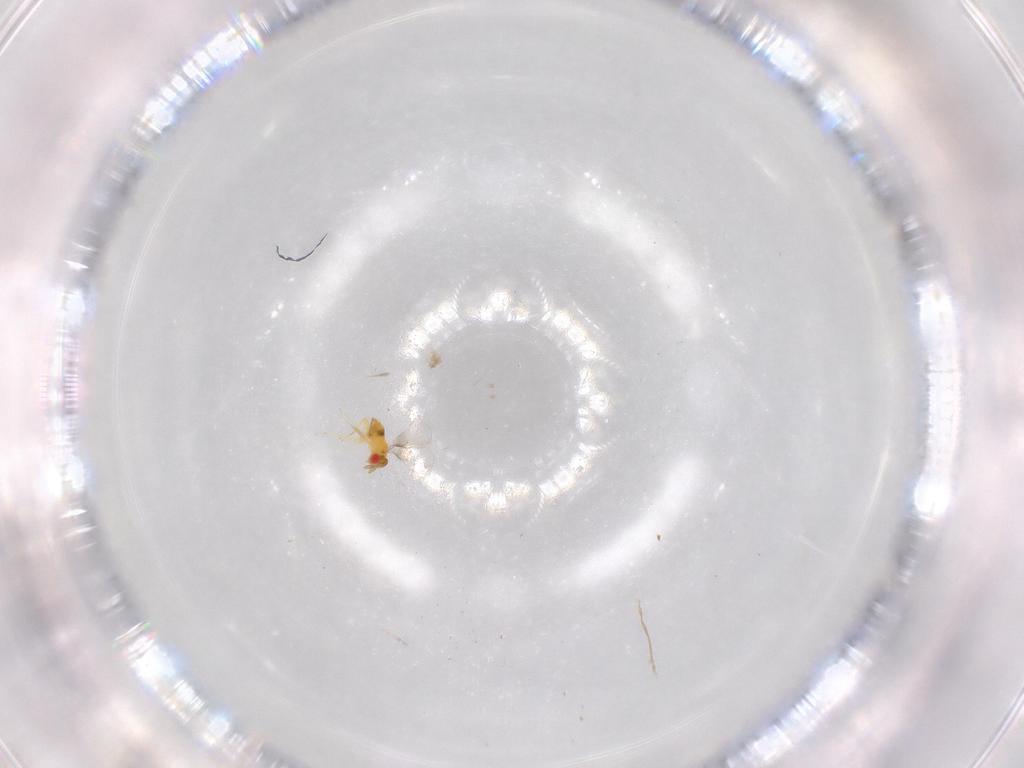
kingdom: Animalia
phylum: Arthropoda
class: Insecta
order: Hymenoptera
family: Trichogrammatidae
